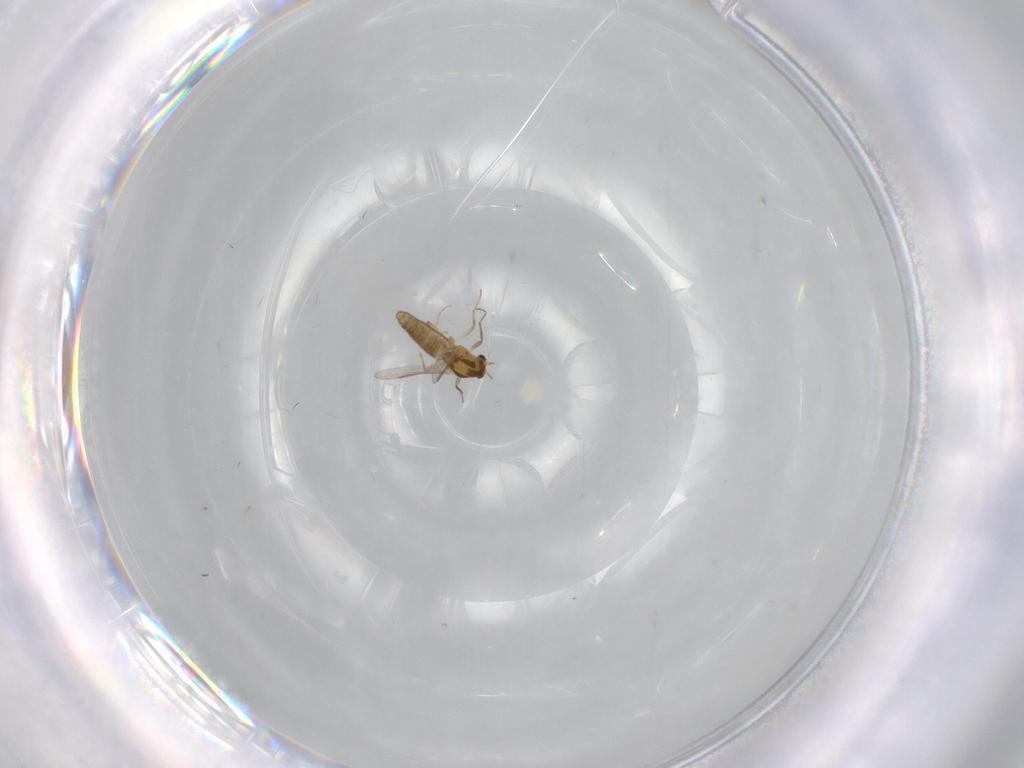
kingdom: Animalia
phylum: Arthropoda
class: Insecta
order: Diptera
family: Chironomidae
